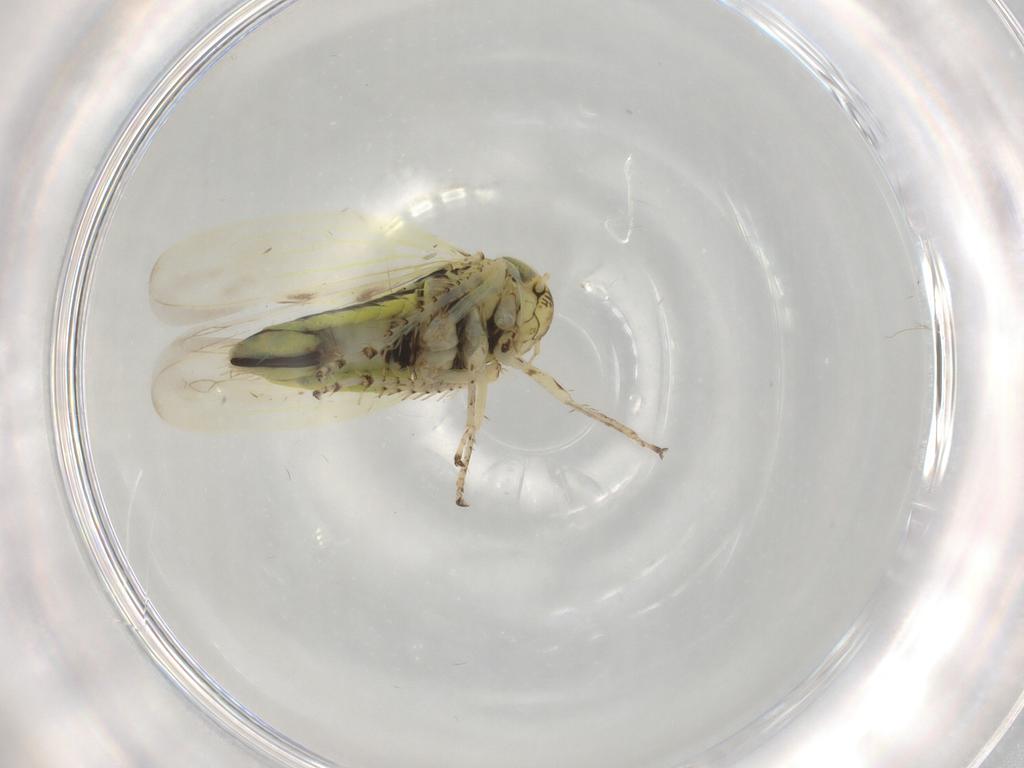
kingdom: Animalia
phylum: Arthropoda
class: Insecta
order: Hemiptera
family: Cicadellidae
